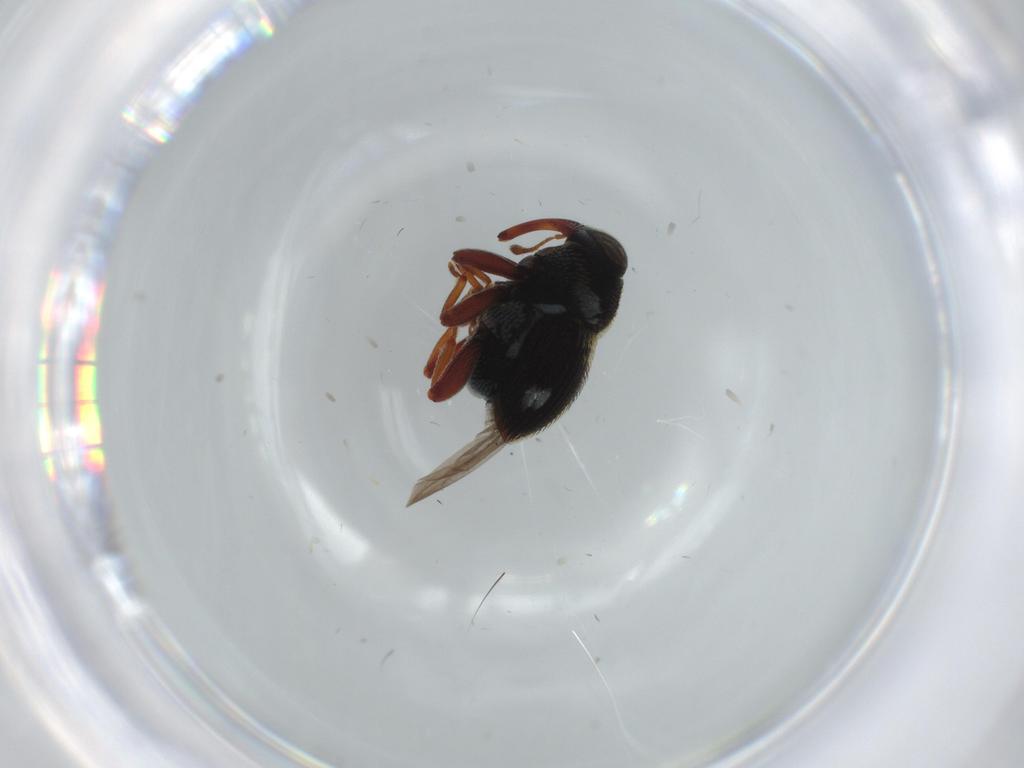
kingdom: Animalia
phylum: Arthropoda
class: Insecta
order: Coleoptera
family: Curculionidae
